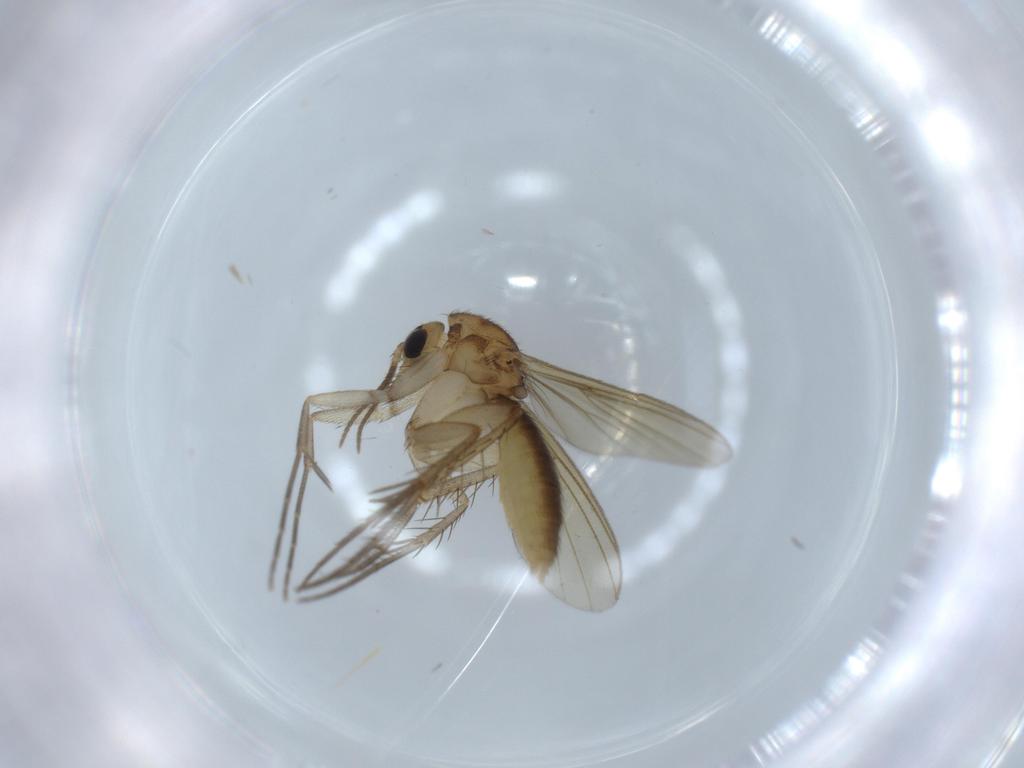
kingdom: Animalia
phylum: Arthropoda
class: Insecta
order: Diptera
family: Mycetophilidae
